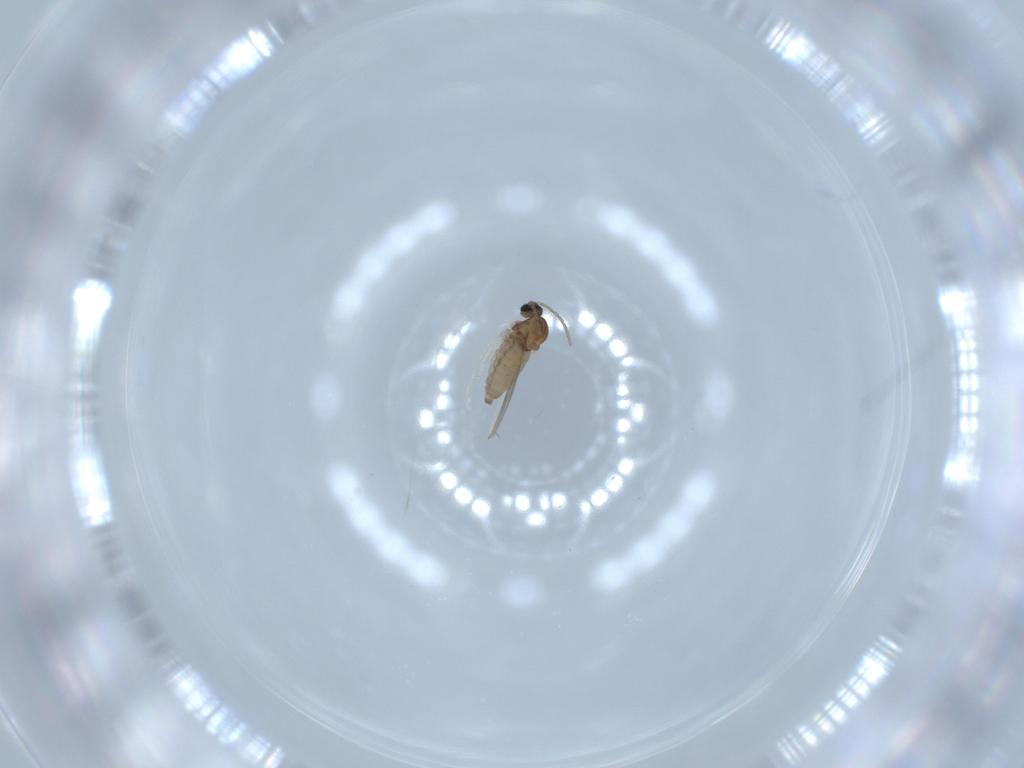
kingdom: Animalia
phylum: Arthropoda
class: Insecta
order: Diptera
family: Cecidomyiidae
